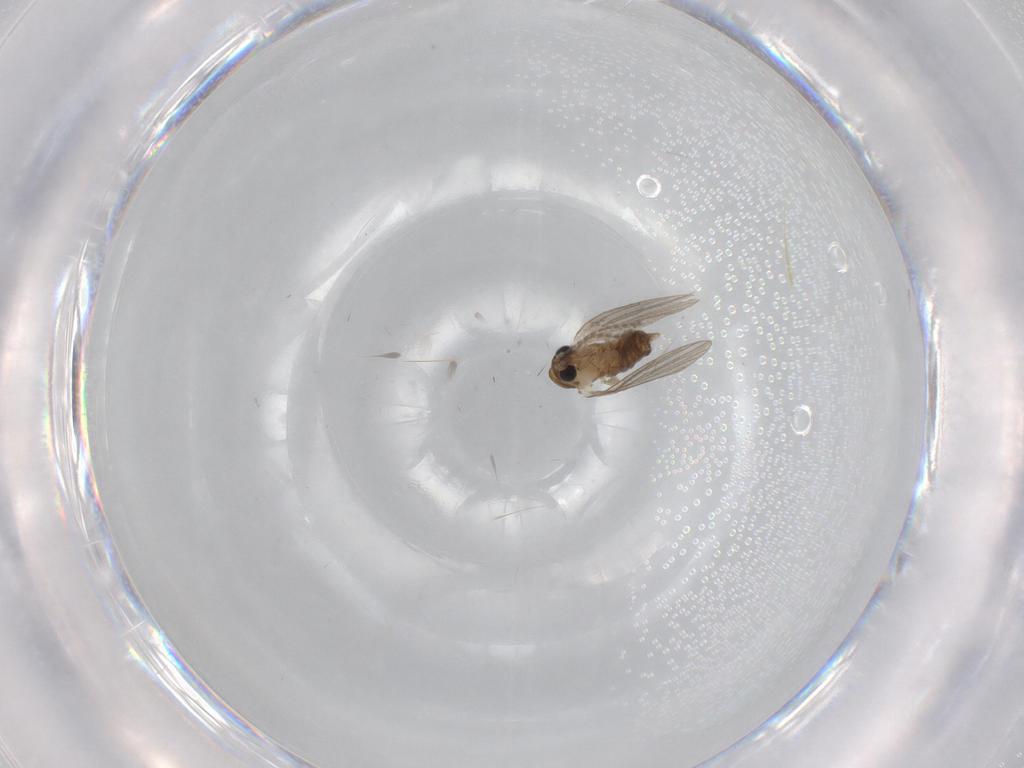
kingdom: Animalia
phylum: Arthropoda
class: Insecta
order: Diptera
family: Psychodidae
